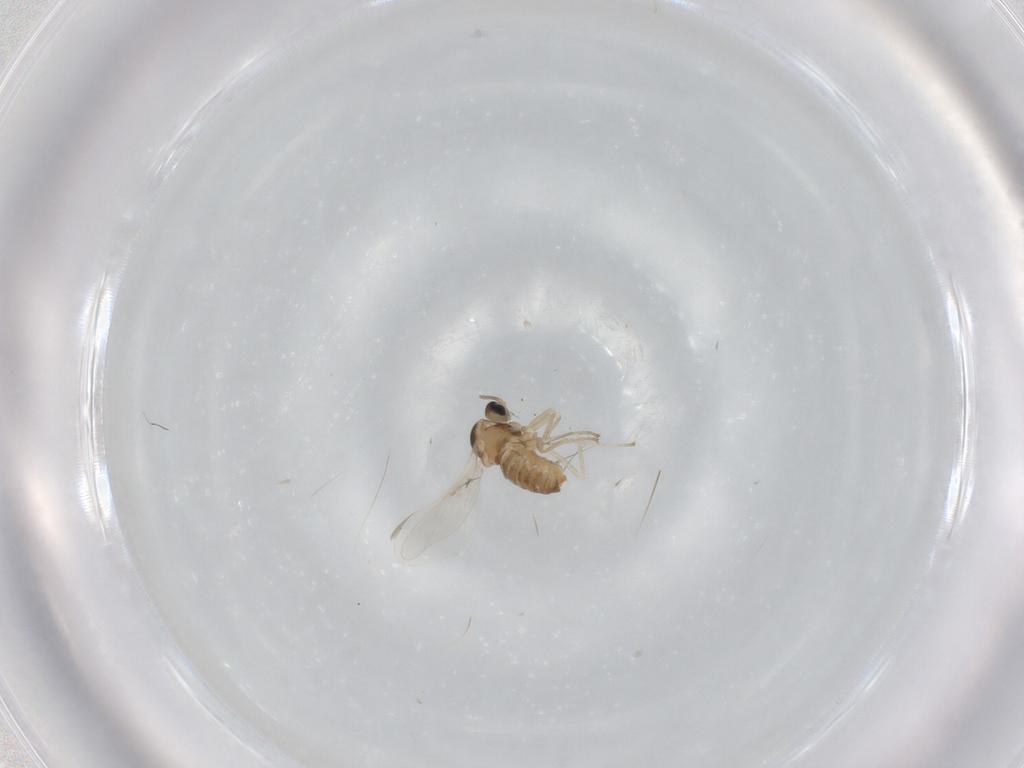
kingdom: Animalia
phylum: Arthropoda
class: Insecta
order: Diptera
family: Cecidomyiidae
